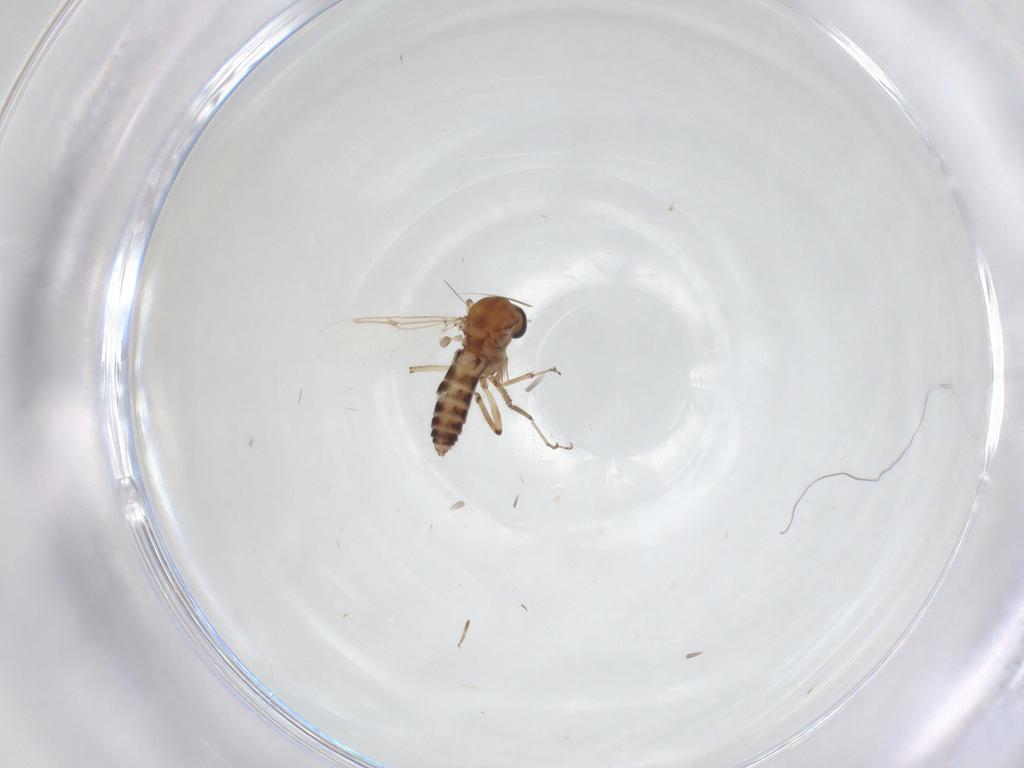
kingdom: Animalia
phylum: Arthropoda
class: Insecta
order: Diptera
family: Ceratopogonidae
